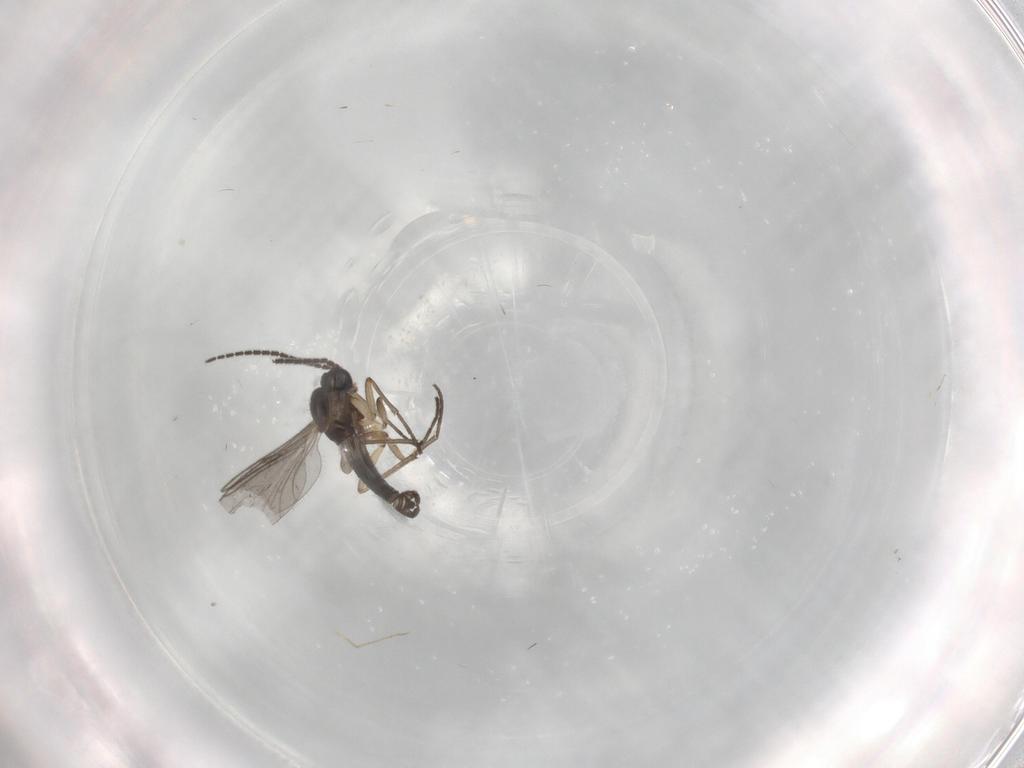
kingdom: Animalia
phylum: Arthropoda
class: Insecta
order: Diptera
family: Sciaridae
